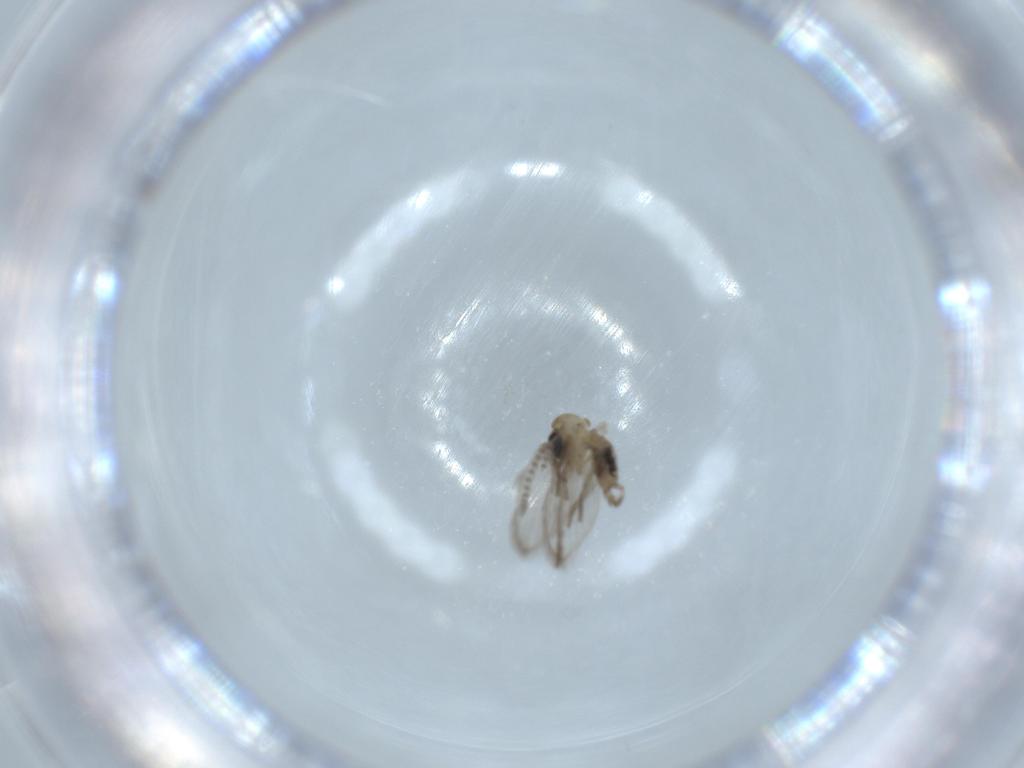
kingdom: Animalia
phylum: Arthropoda
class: Insecta
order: Diptera
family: Psychodidae
